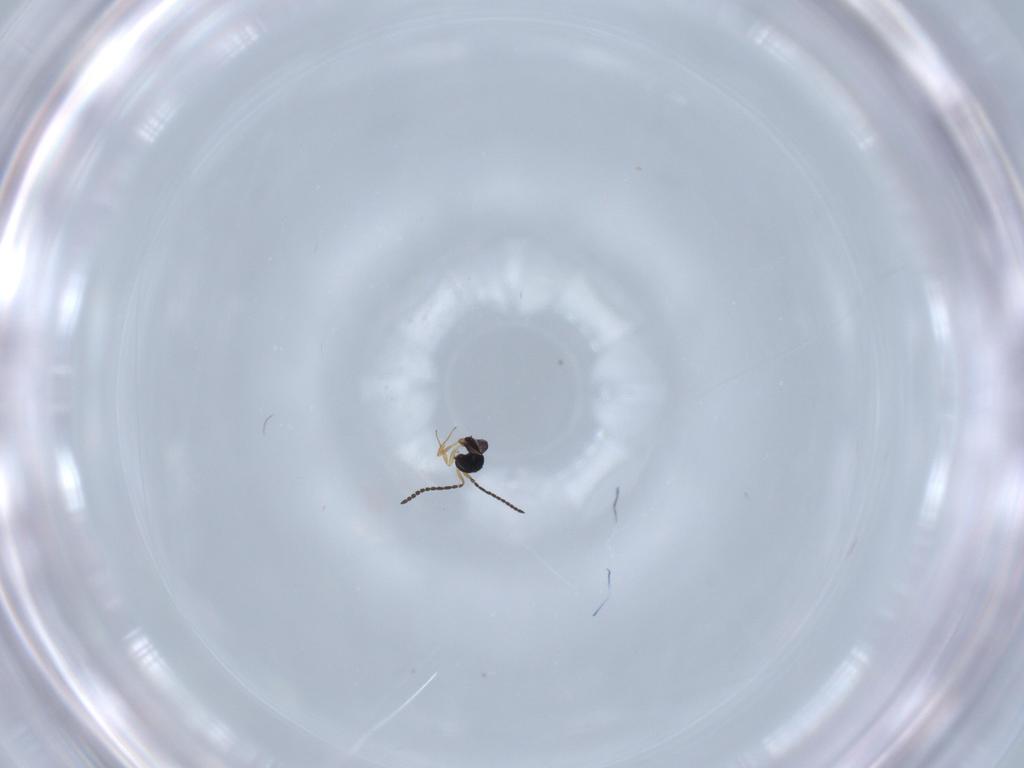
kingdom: Animalia
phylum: Arthropoda
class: Insecta
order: Hymenoptera
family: Scelionidae
